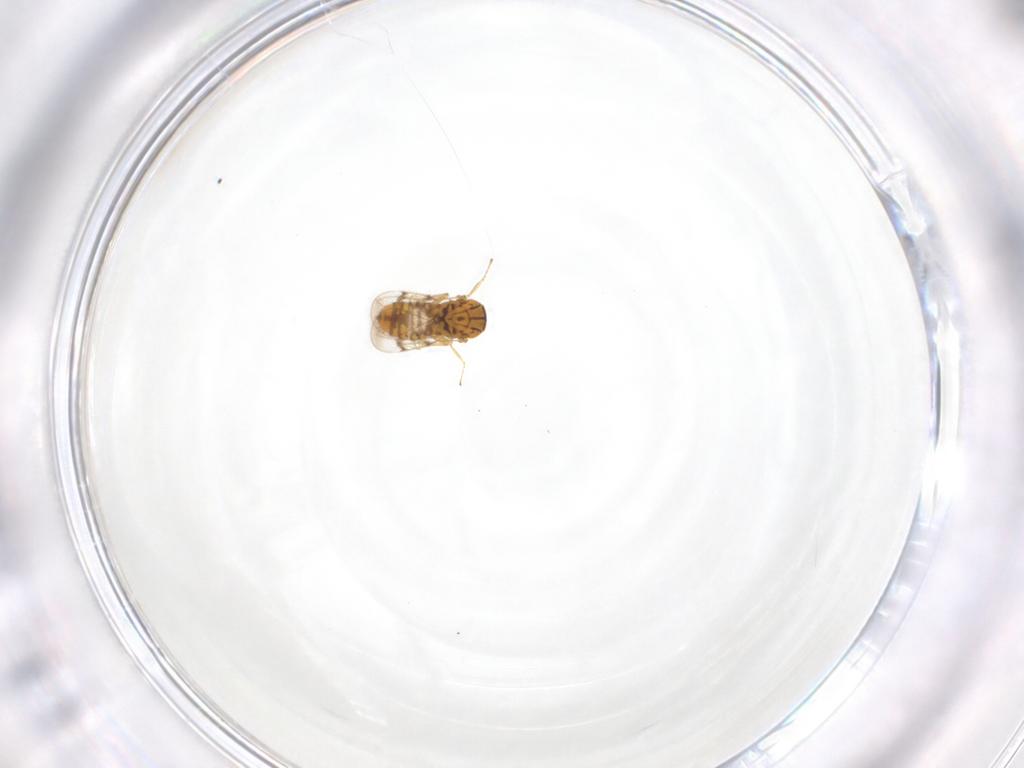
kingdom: Animalia
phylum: Arthropoda
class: Insecta
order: Hymenoptera
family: Pteromalidae
